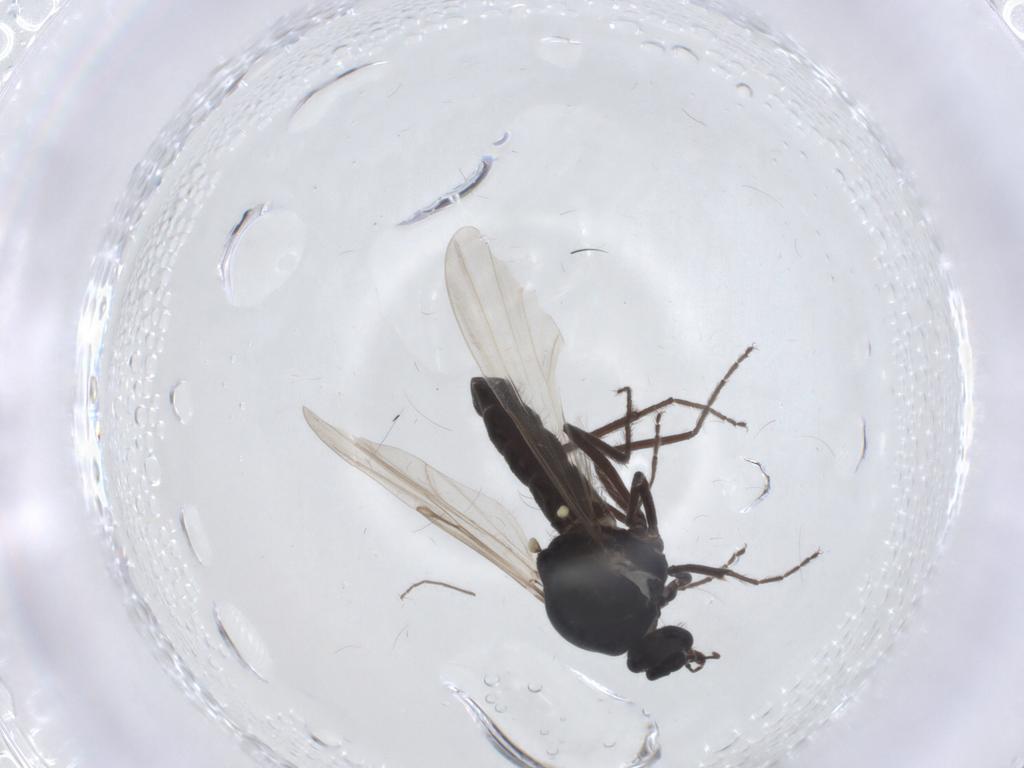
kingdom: Animalia
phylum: Arthropoda
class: Insecta
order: Diptera
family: Ceratopogonidae
